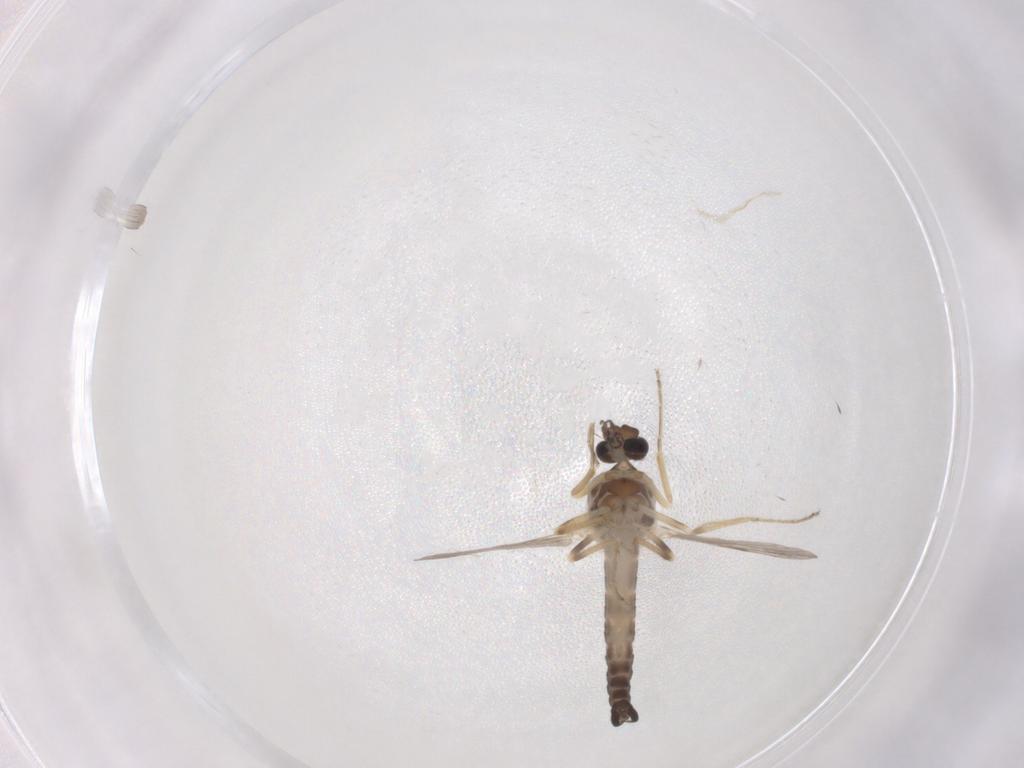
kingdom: Animalia
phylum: Arthropoda
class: Insecta
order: Diptera
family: Ceratopogonidae
